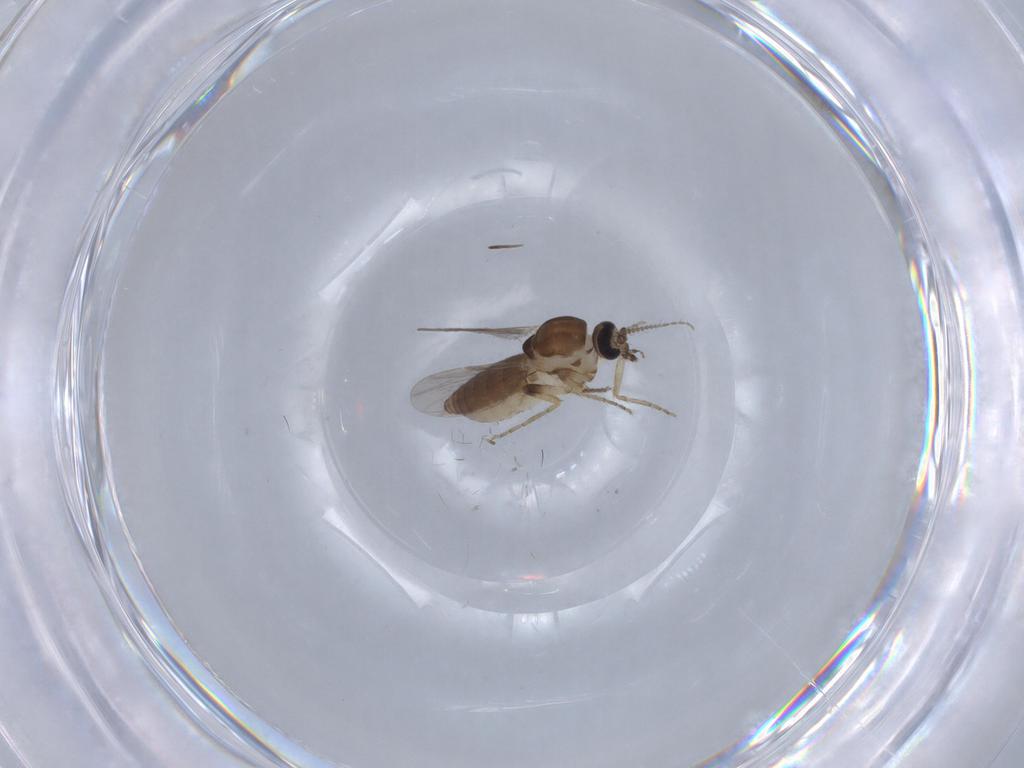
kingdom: Animalia
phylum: Arthropoda
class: Insecta
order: Diptera
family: Ceratopogonidae
